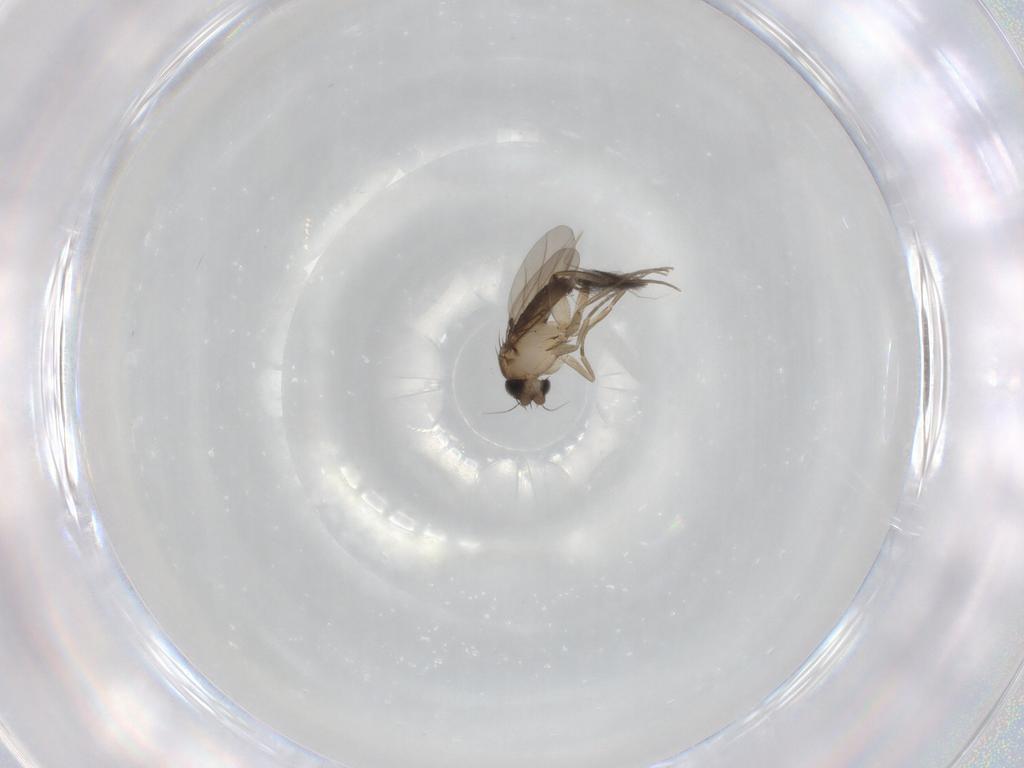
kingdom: Animalia
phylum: Arthropoda
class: Insecta
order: Diptera
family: Phoridae
